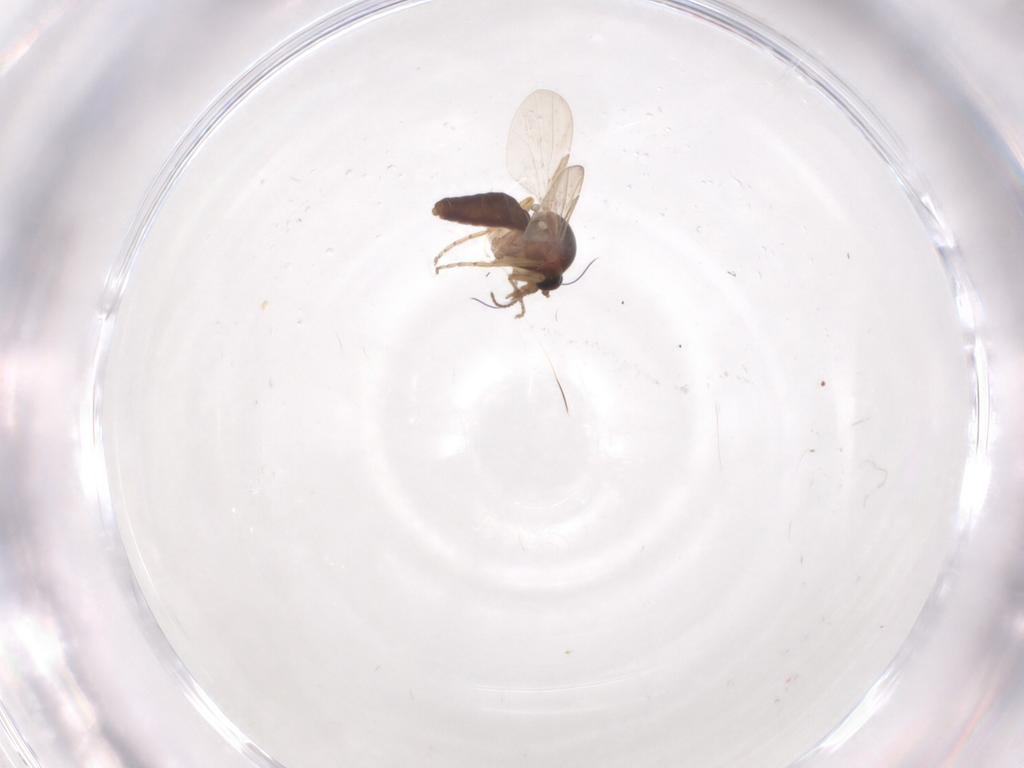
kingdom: Animalia
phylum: Arthropoda
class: Insecta
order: Diptera
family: Ceratopogonidae
